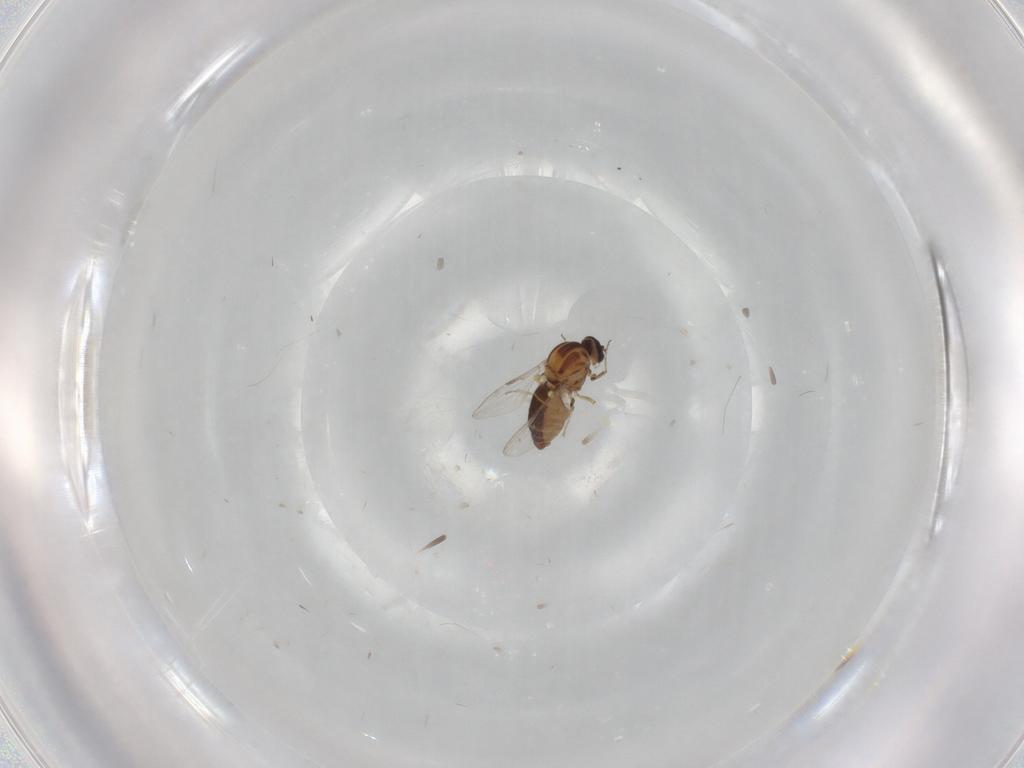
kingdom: Animalia
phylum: Arthropoda
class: Insecta
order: Diptera
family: Ceratopogonidae
